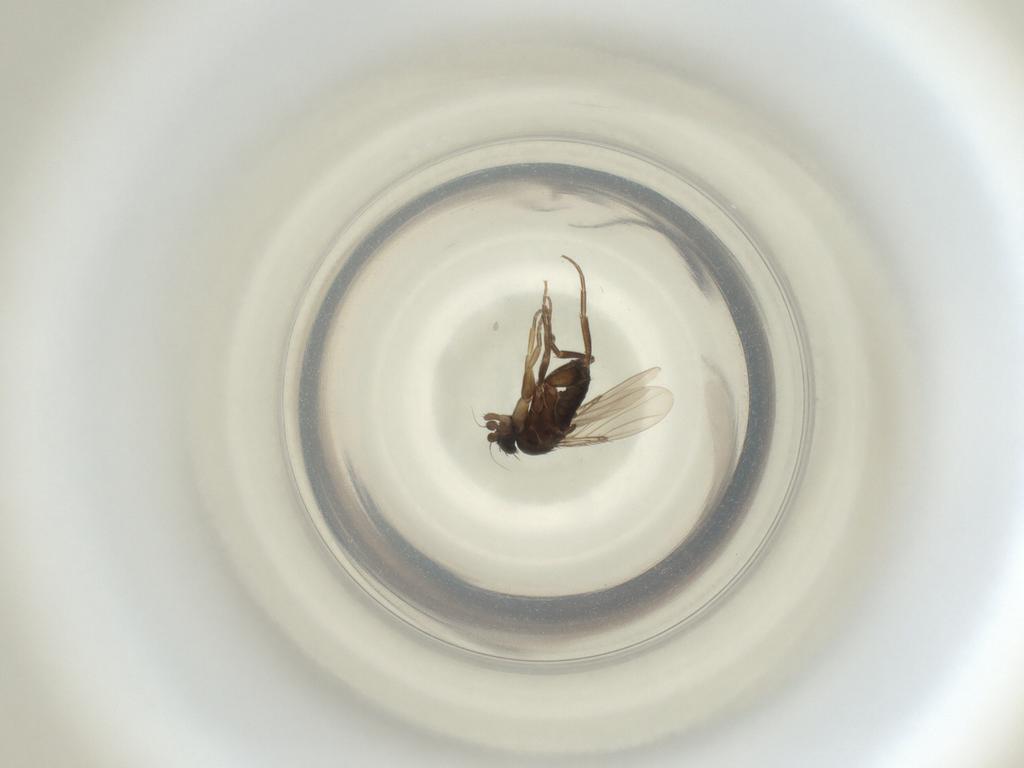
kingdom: Animalia
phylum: Arthropoda
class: Insecta
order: Diptera
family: Phoridae
